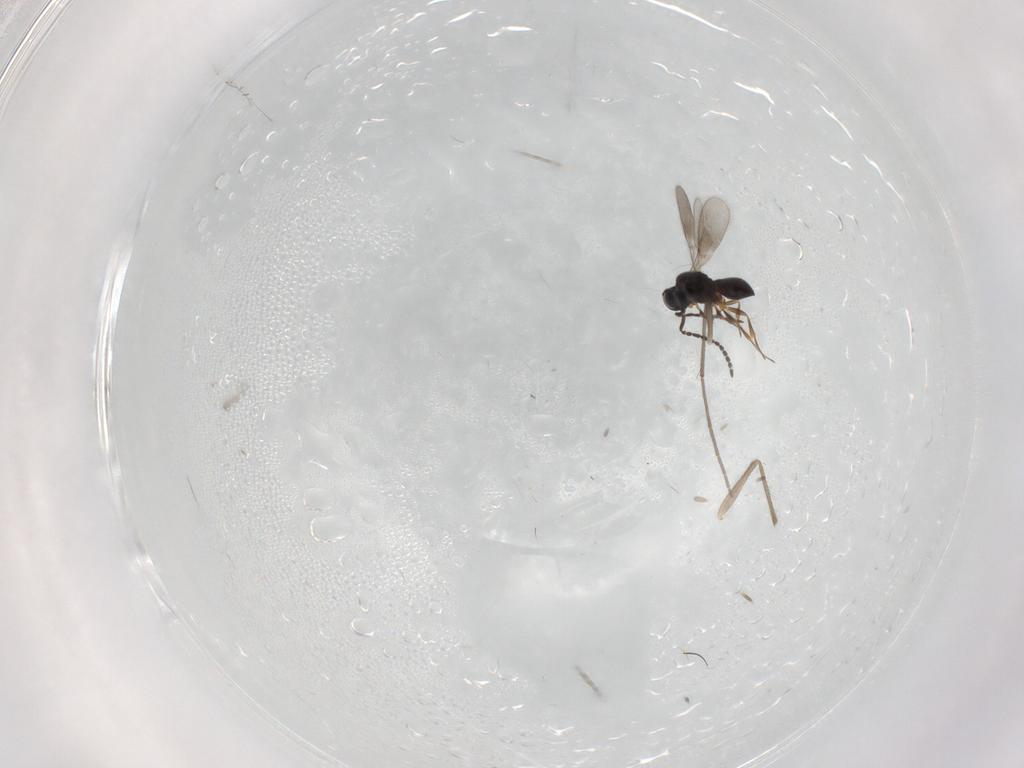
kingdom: Animalia
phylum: Arthropoda
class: Insecta
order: Hymenoptera
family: Scelionidae
